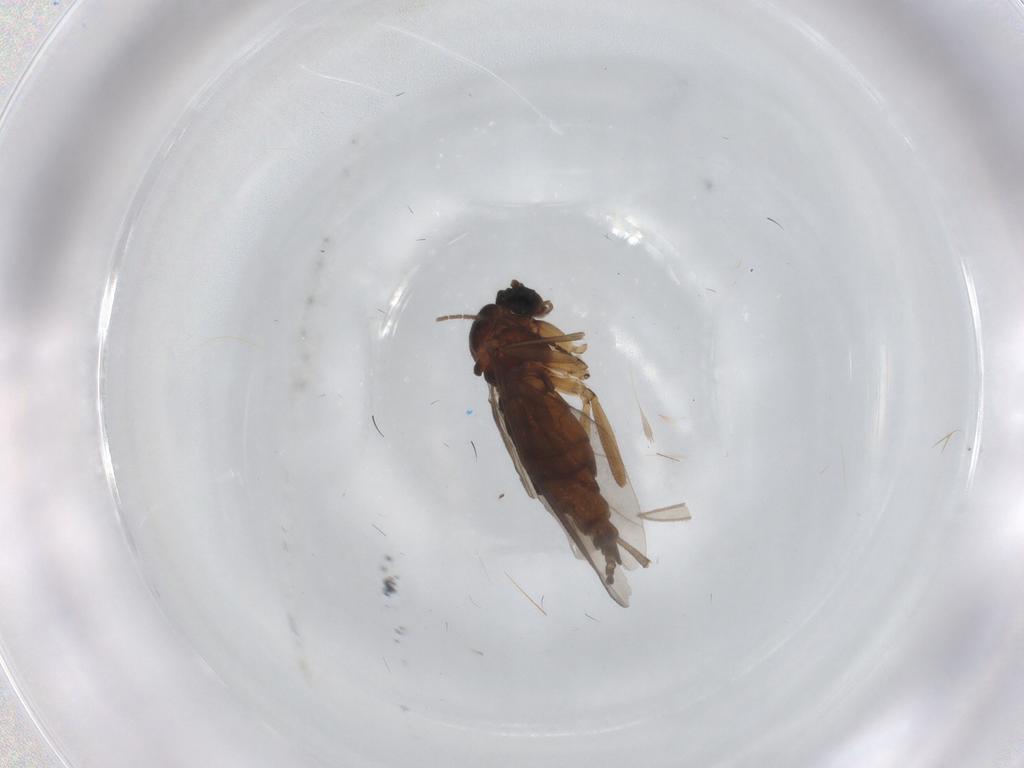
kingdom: Animalia
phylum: Arthropoda
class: Insecta
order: Diptera
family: Sciaridae
